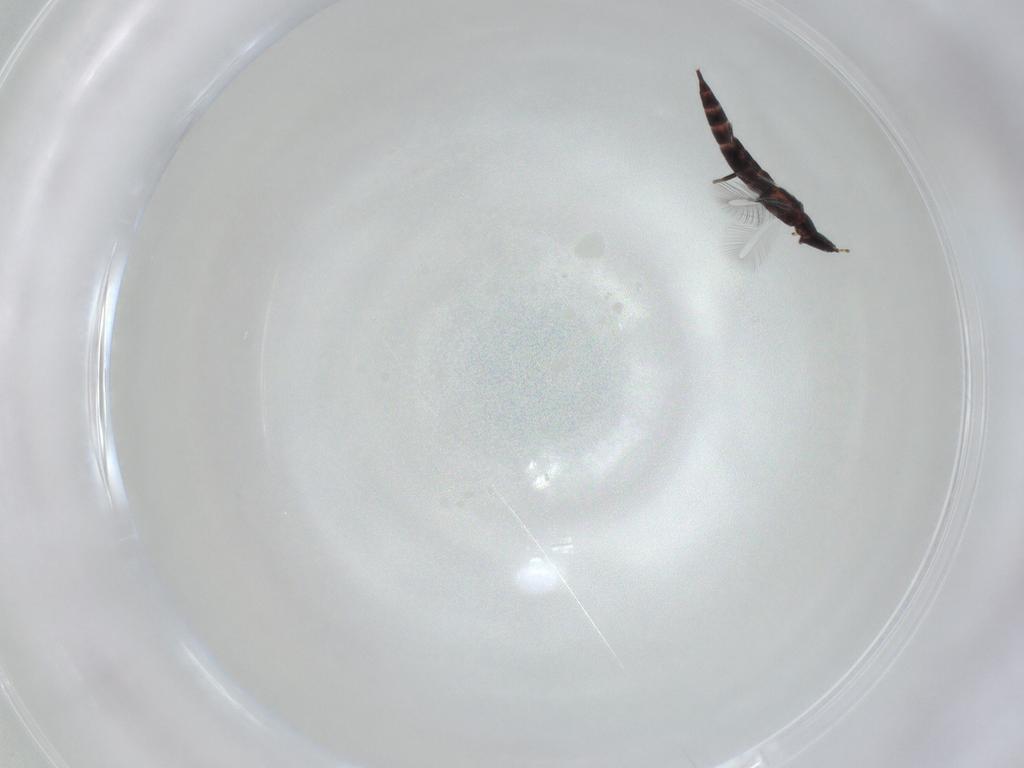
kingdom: Animalia
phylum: Arthropoda
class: Insecta
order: Thysanoptera
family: Phlaeothripidae
